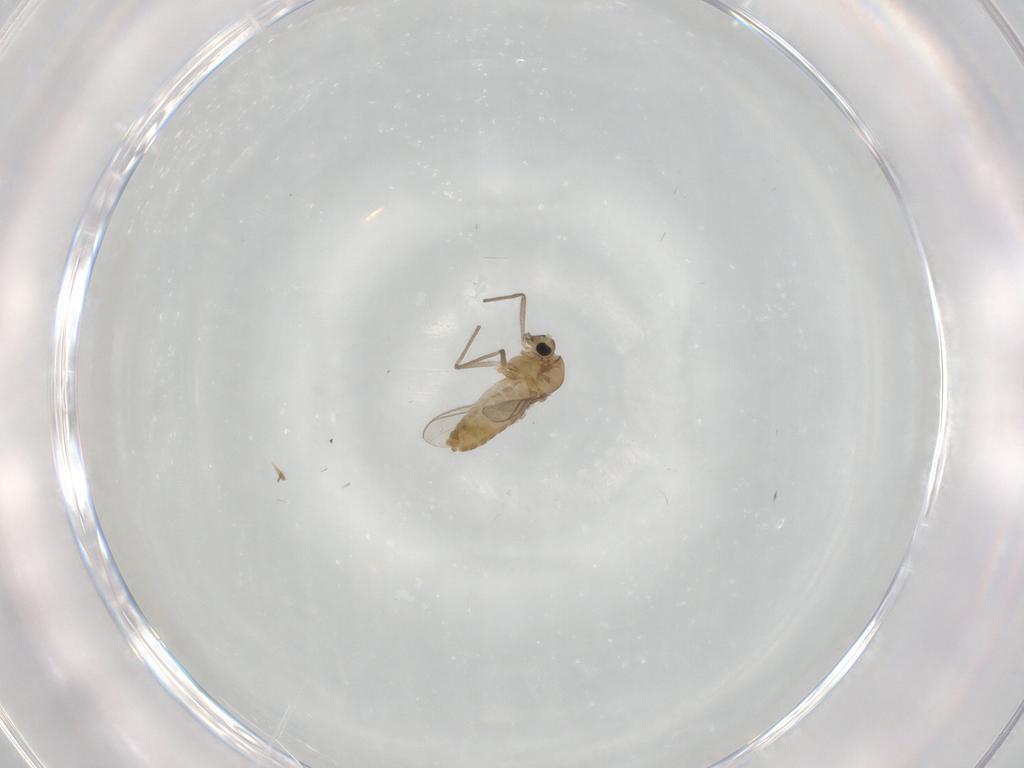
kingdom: Animalia
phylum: Arthropoda
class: Insecta
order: Diptera
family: Chironomidae
